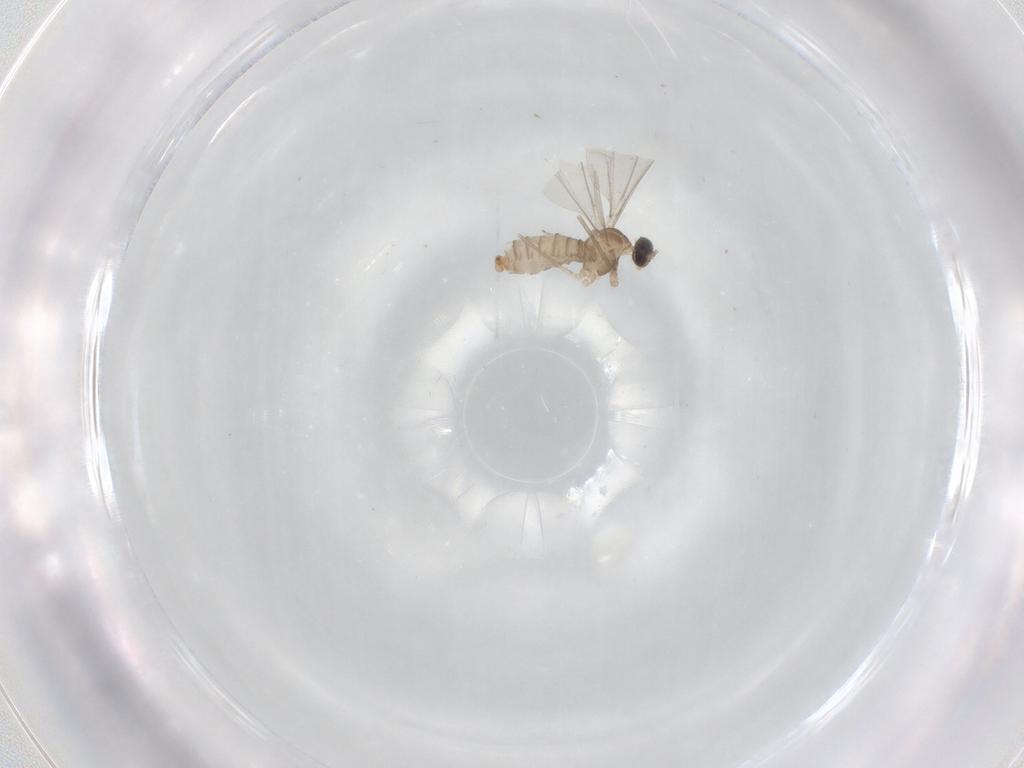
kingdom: Animalia
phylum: Arthropoda
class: Insecta
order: Diptera
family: Cecidomyiidae
